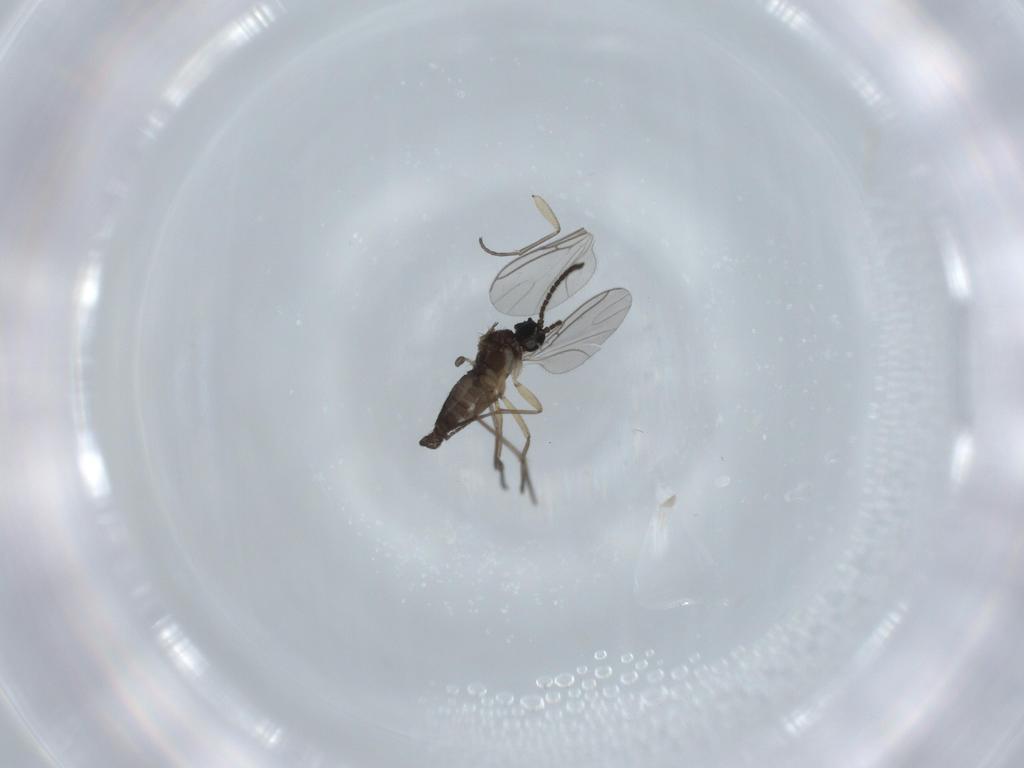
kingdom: Animalia
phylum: Arthropoda
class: Insecta
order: Diptera
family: Sciaridae
